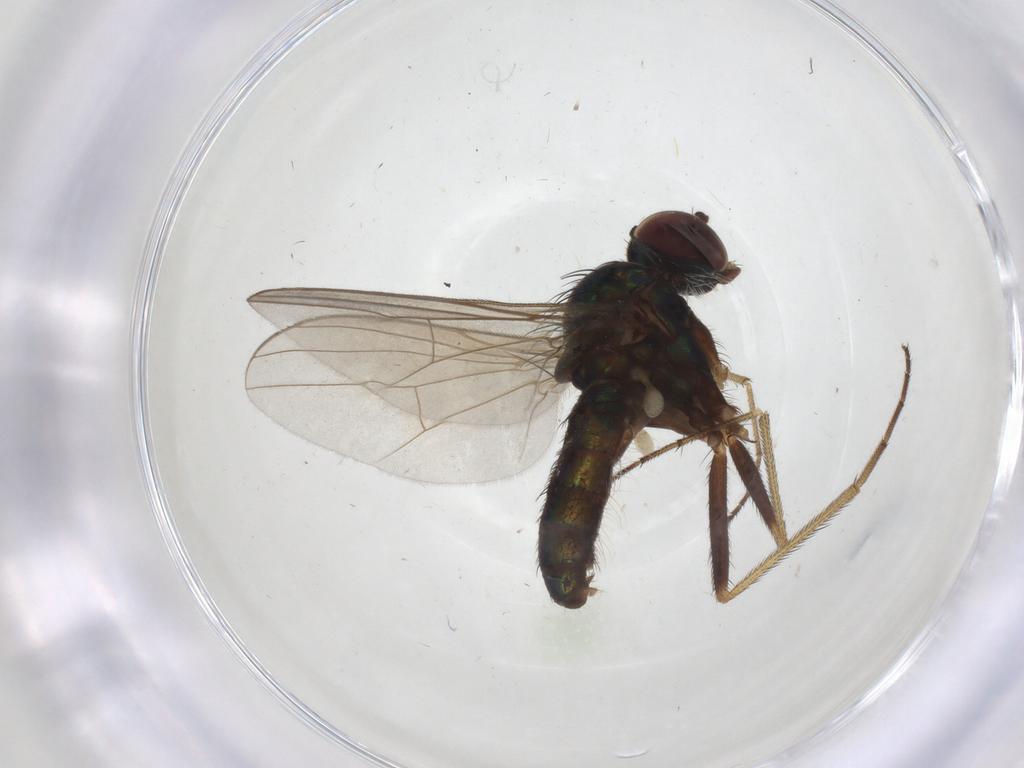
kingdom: Animalia
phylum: Arthropoda
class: Insecta
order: Diptera
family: Dolichopodidae
